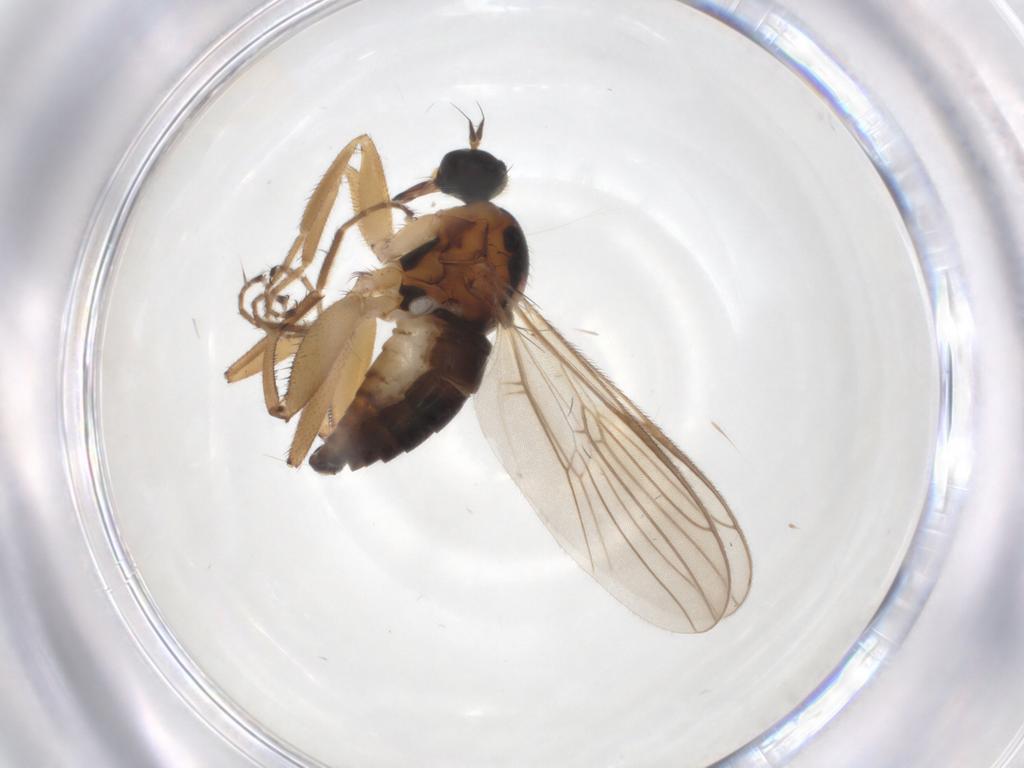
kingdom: Animalia
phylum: Arthropoda
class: Insecta
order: Diptera
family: Hybotidae
